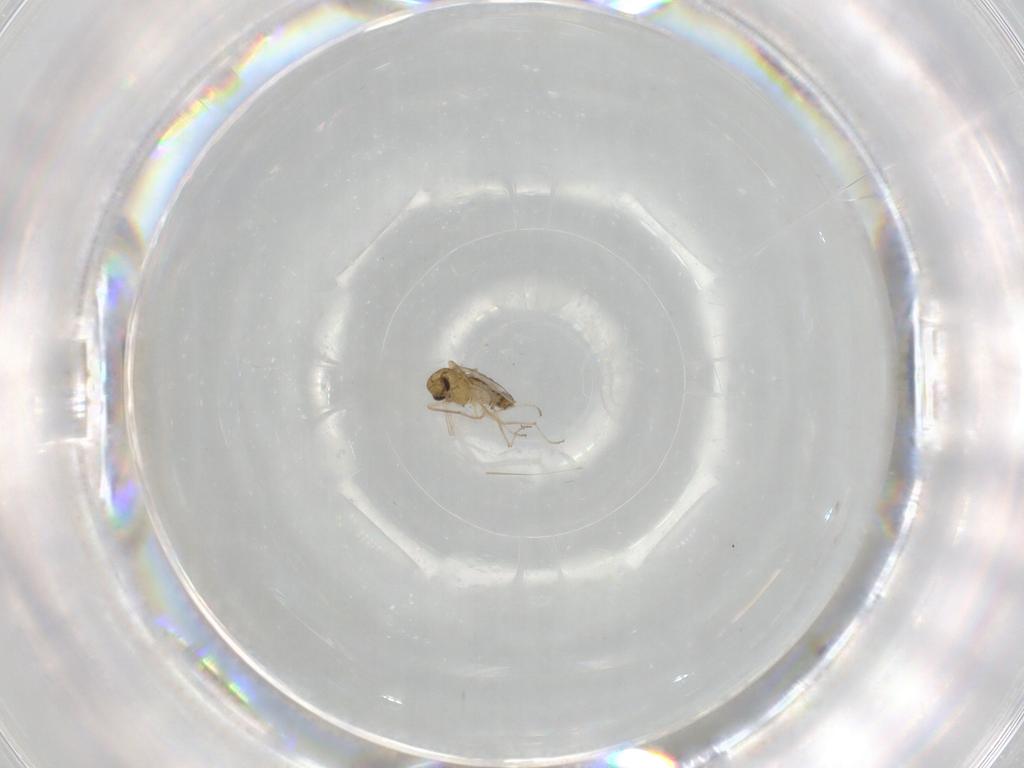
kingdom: Animalia
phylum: Arthropoda
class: Insecta
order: Diptera
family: Chironomidae
